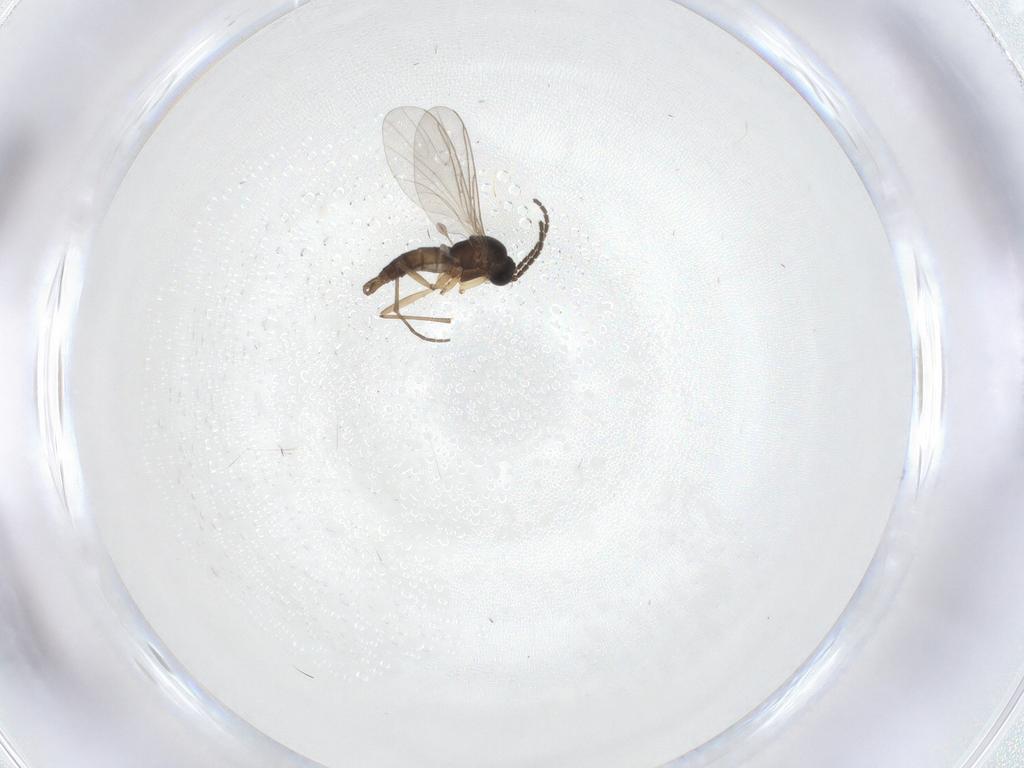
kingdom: Animalia
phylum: Arthropoda
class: Insecta
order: Diptera
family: Sciaridae
